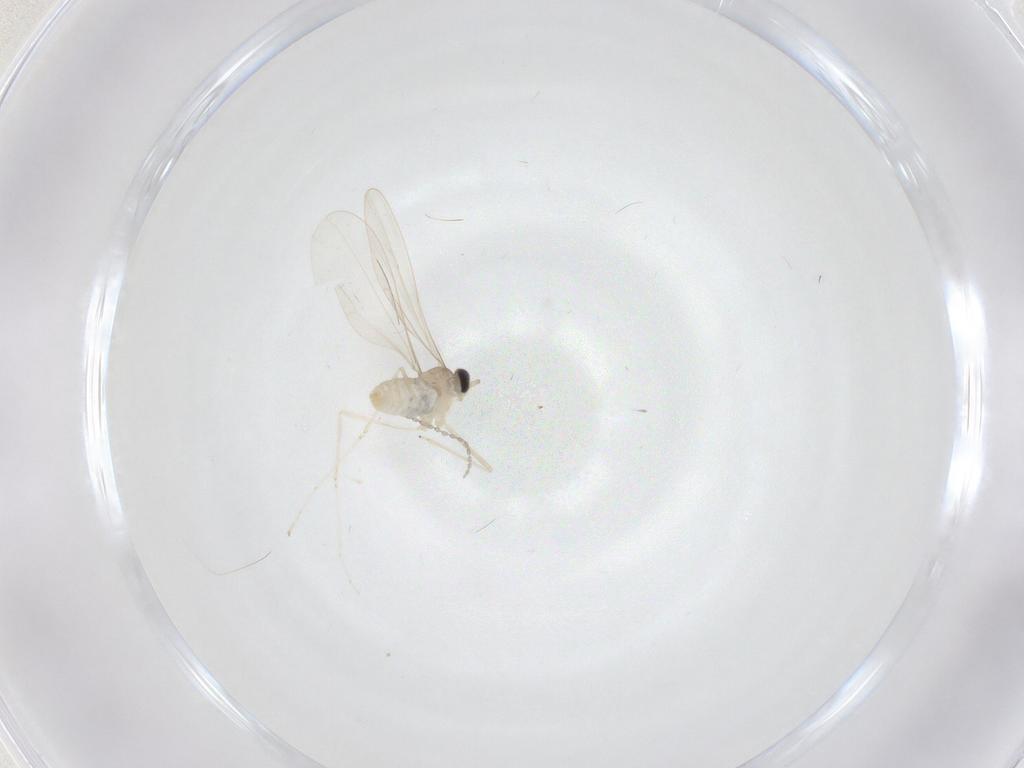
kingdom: Animalia
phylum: Arthropoda
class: Insecta
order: Diptera
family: Cecidomyiidae
